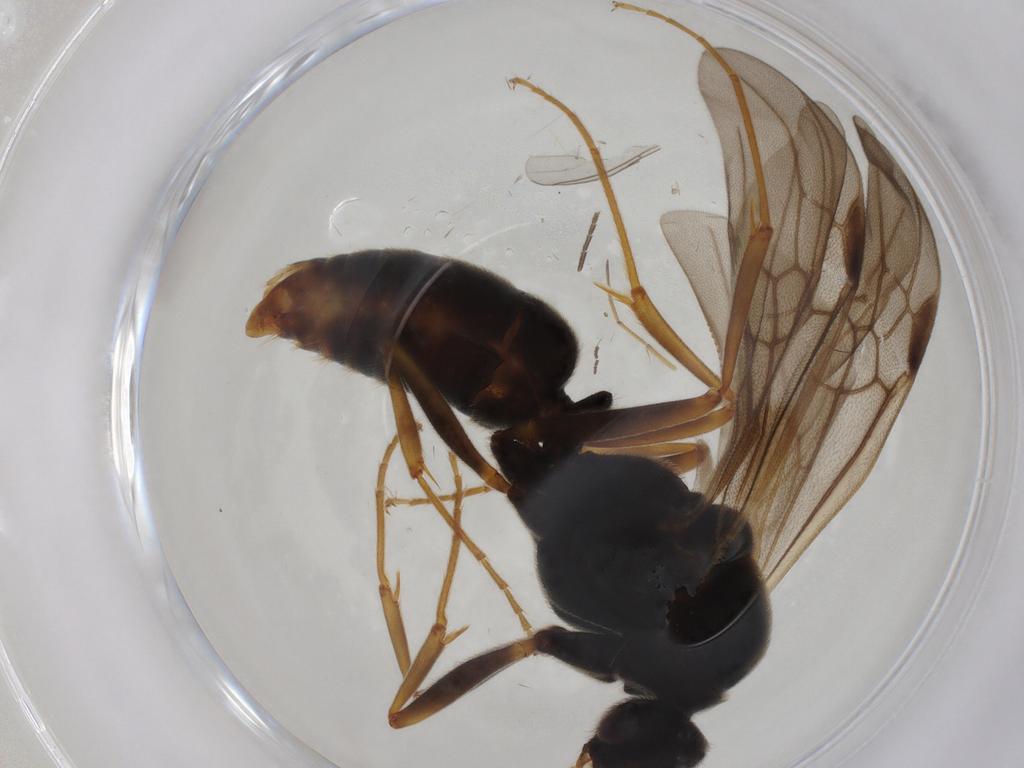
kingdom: Animalia
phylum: Arthropoda
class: Insecta
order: Hymenoptera
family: Formicidae
